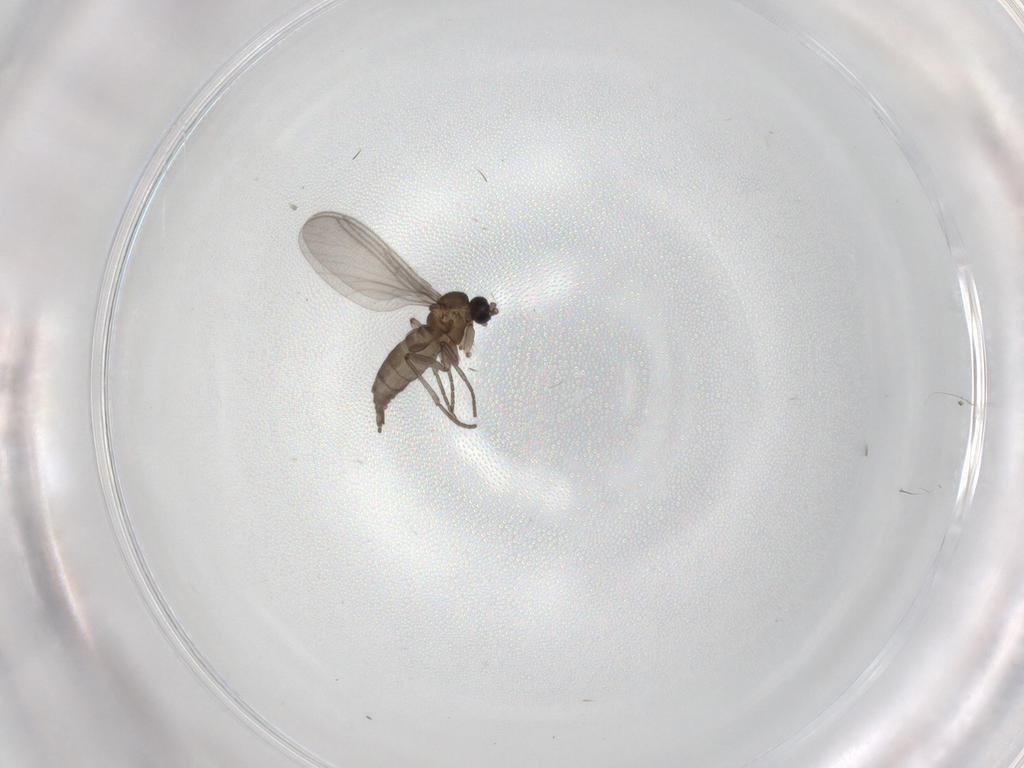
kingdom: Animalia
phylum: Arthropoda
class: Insecta
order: Diptera
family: Sciaridae
